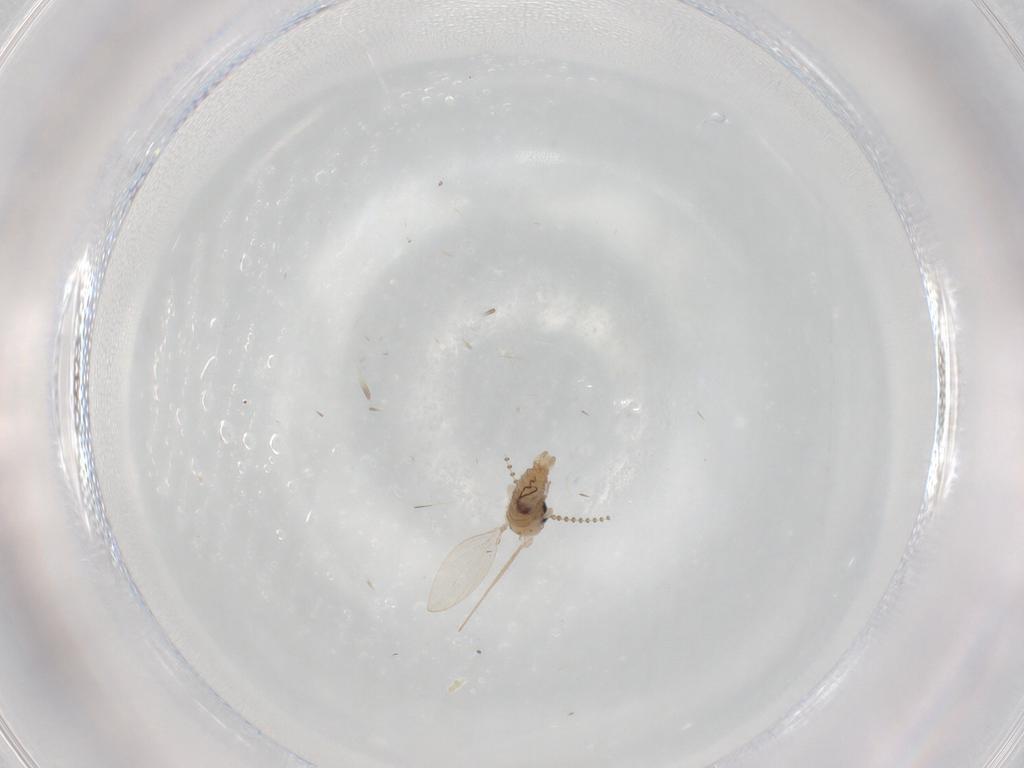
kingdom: Animalia
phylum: Arthropoda
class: Insecta
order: Diptera
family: Psychodidae
